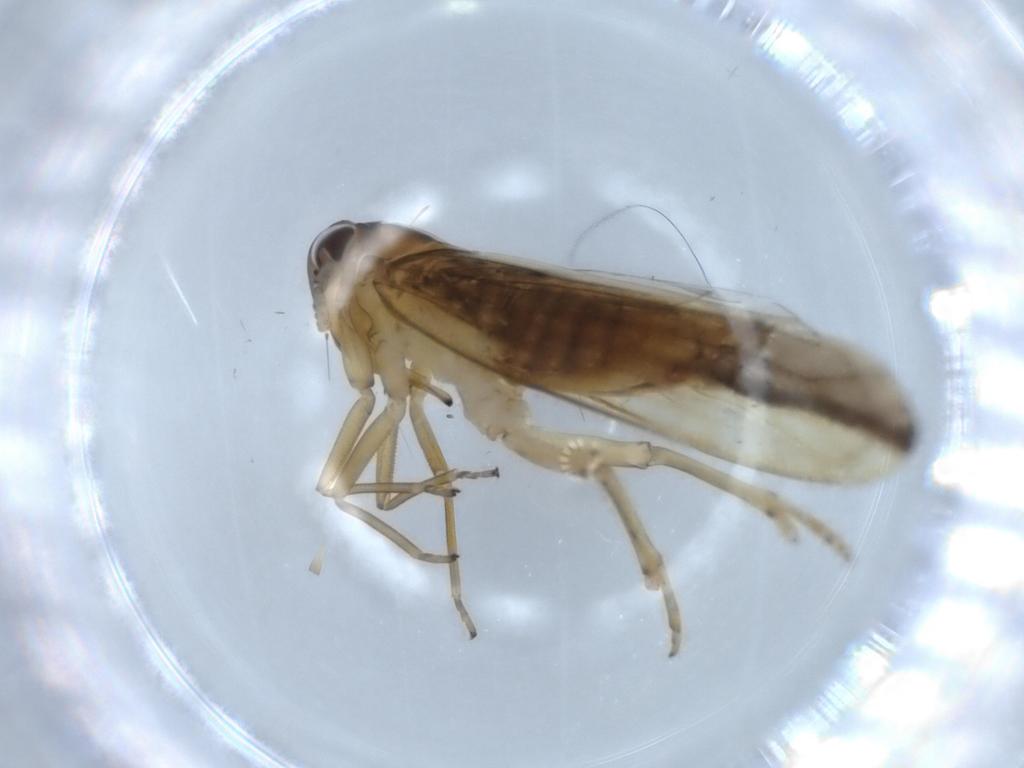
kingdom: Animalia
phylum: Arthropoda
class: Insecta
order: Hemiptera
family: Delphacidae
